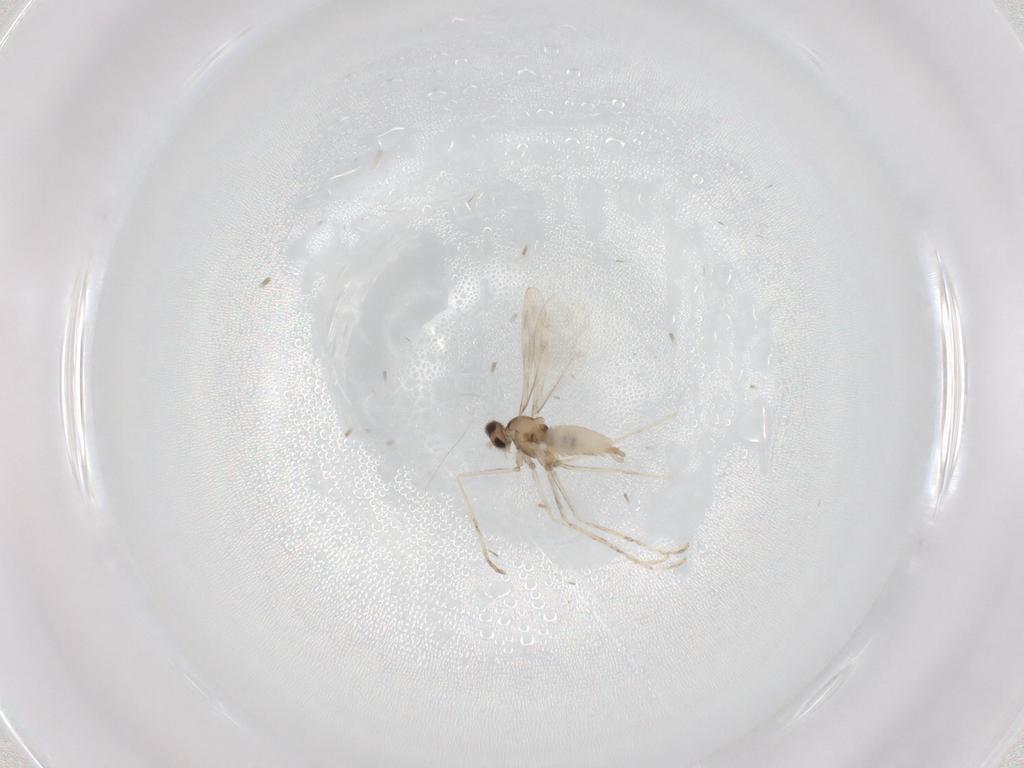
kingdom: Animalia
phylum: Arthropoda
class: Insecta
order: Diptera
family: Cecidomyiidae
